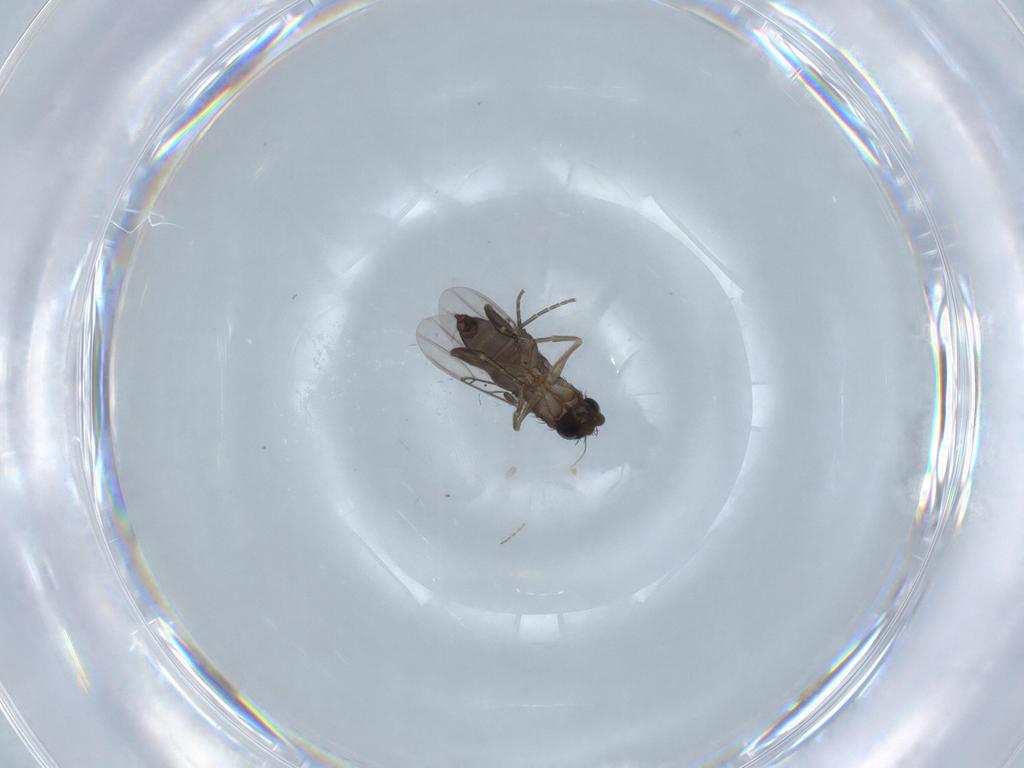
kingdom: Animalia
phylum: Arthropoda
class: Insecta
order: Diptera
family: Phoridae
